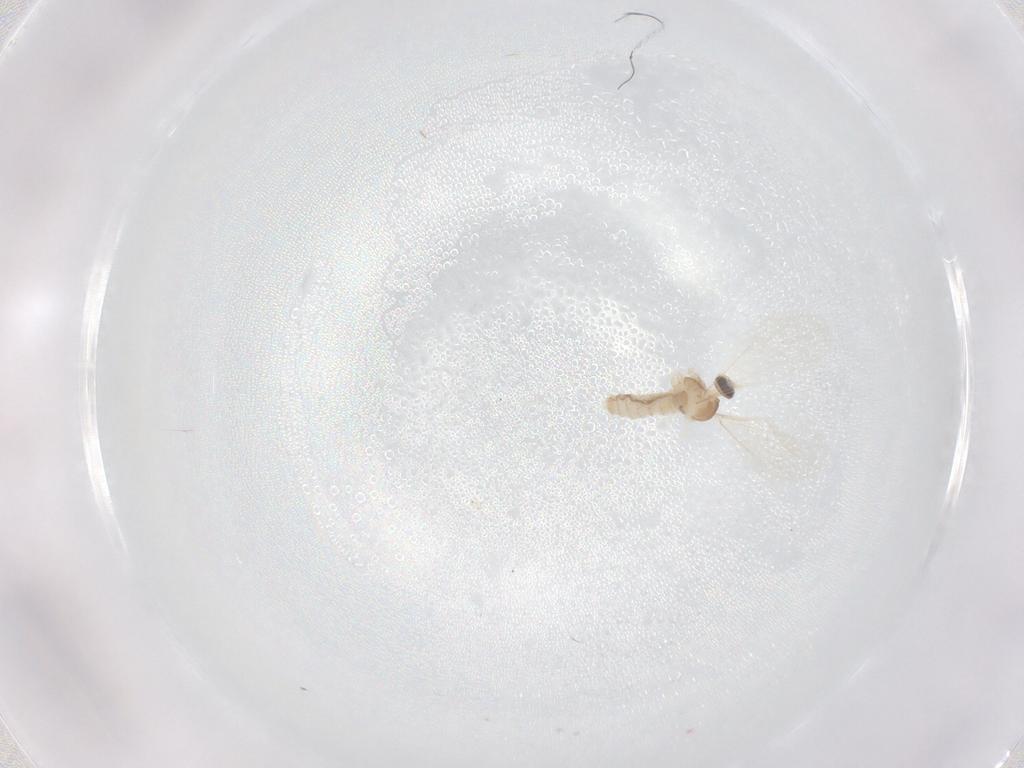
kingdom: Animalia
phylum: Arthropoda
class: Insecta
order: Diptera
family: Cecidomyiidae
